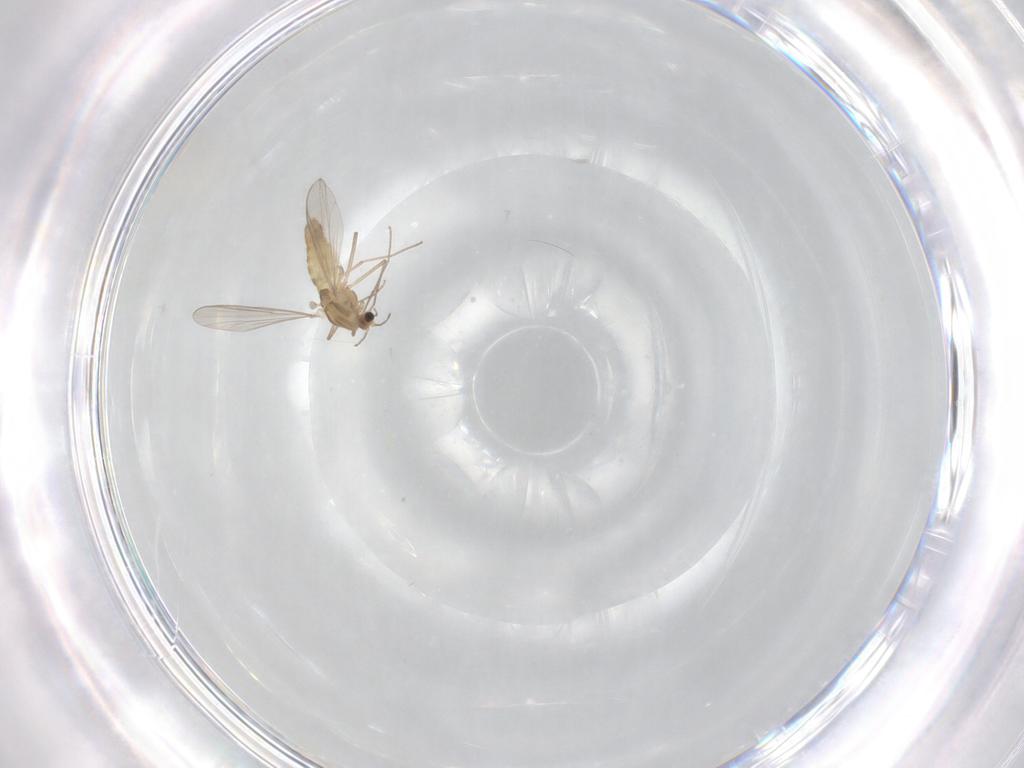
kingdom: Animalia
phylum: Arthropoda
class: Insecta
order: Diptera
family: Chironomidae
